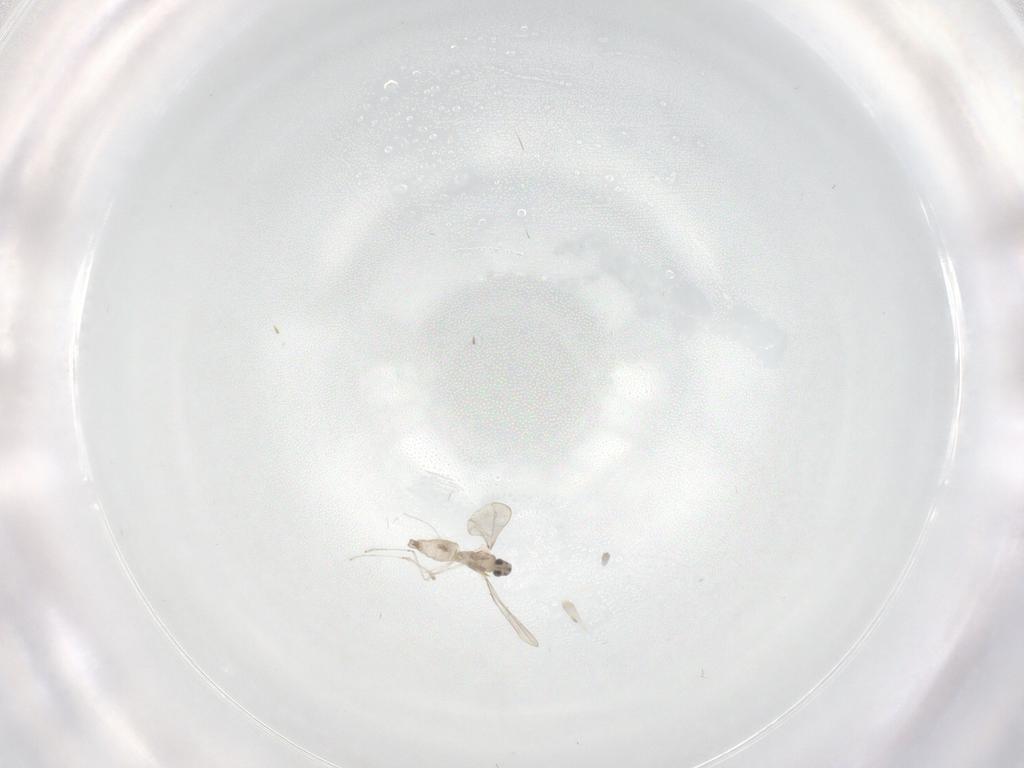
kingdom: Animalia
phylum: Arthropoda
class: Insecta
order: Diptera
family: Cecidomyiidae
